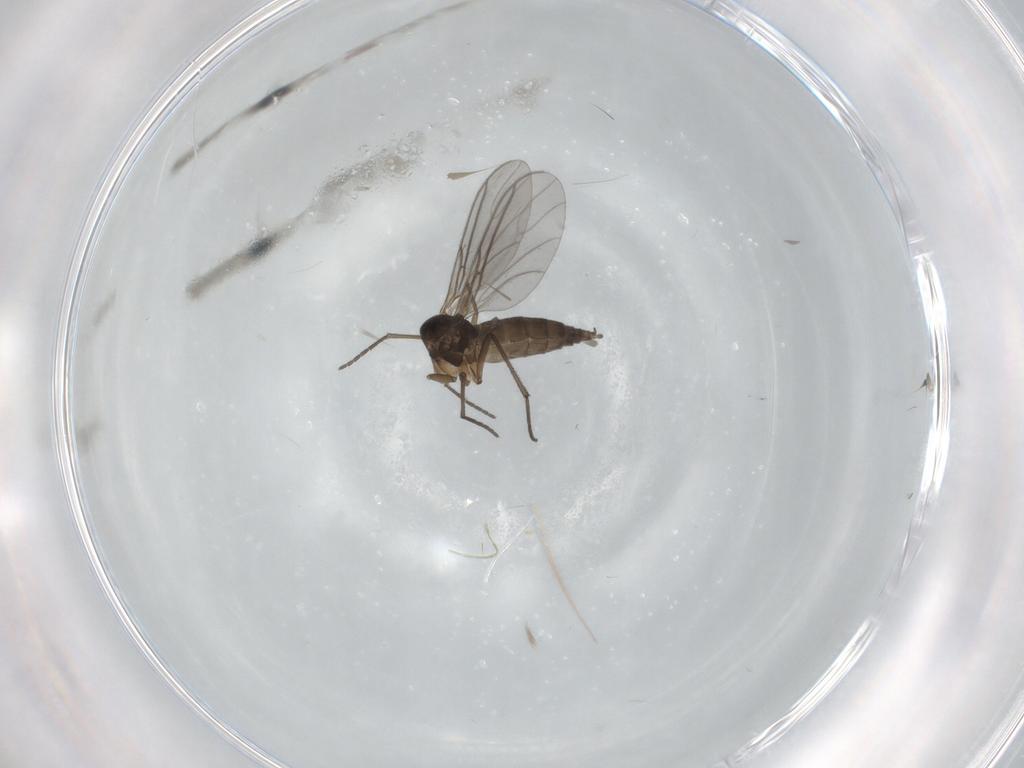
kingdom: Animalia
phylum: Arthropoda
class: Insecta
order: Diptera
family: Sciaridae
